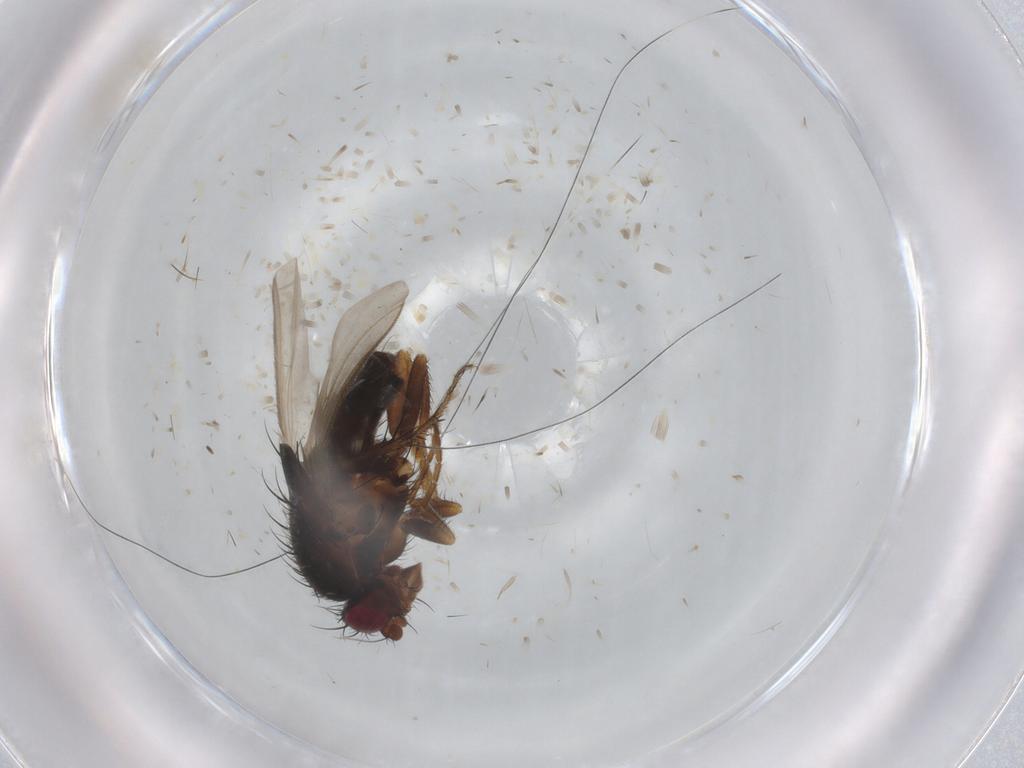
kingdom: Animalia
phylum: Arthropoda
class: Insecta
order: Diptera
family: Sphaeroceridae
